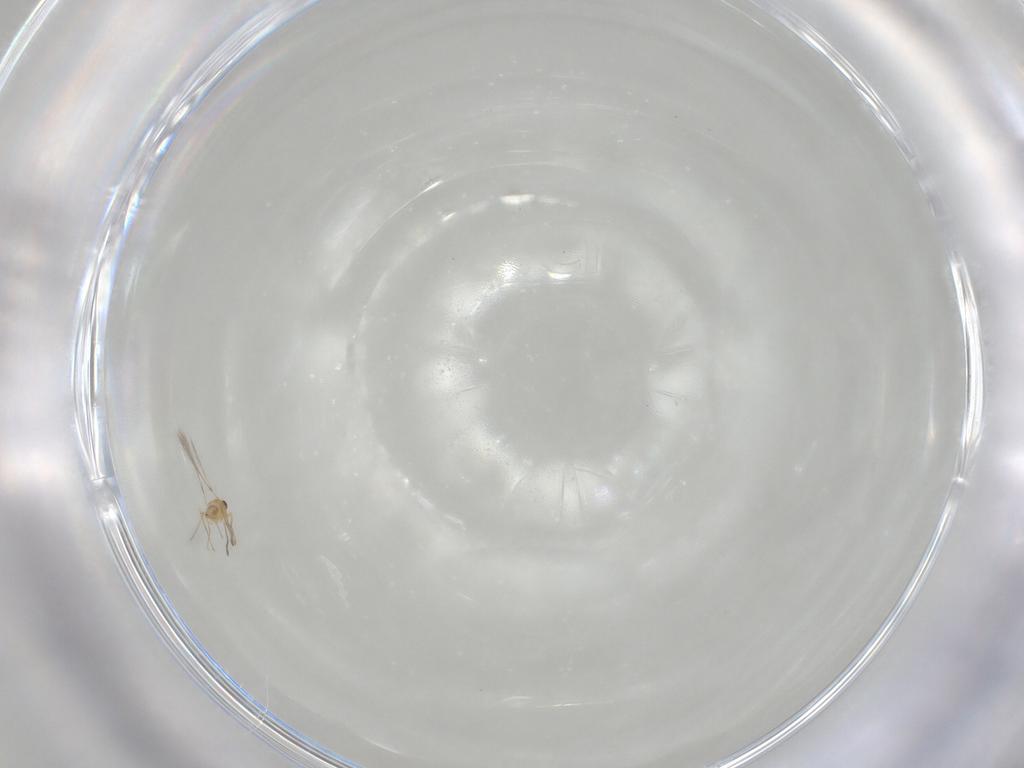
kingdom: Animalia
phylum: Arthropoda
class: Insecta
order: Hymenoptera
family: Mymaridae
